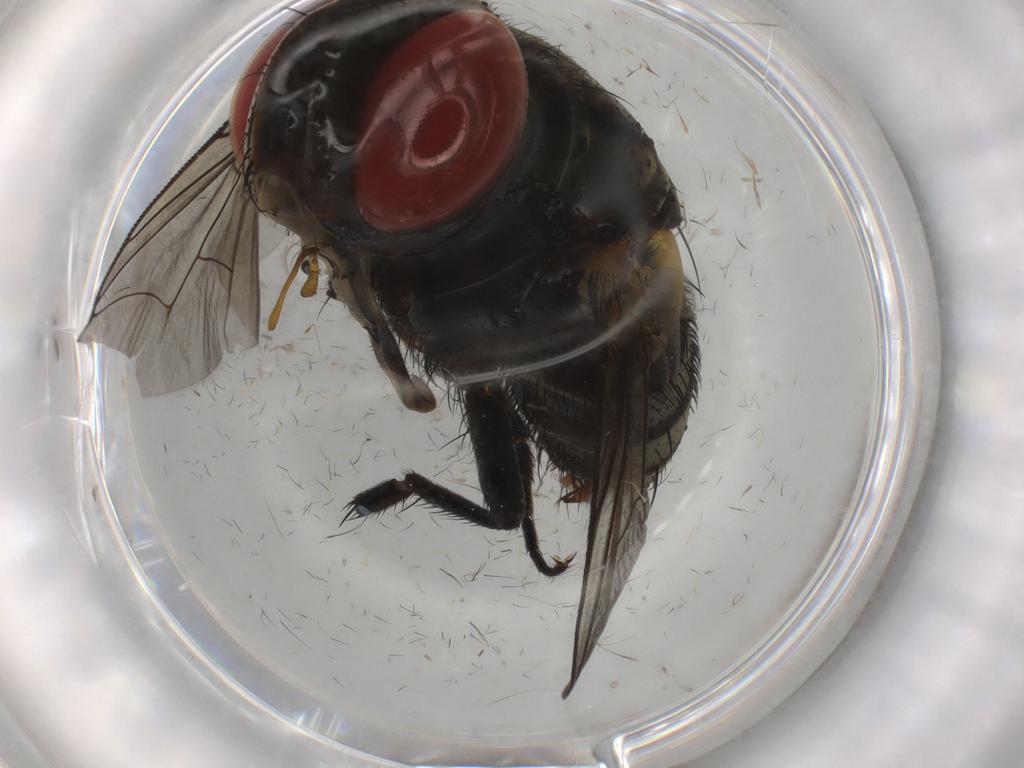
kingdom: Animalia
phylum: Arthropoda
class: Insecta
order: Diptera
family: Sarcophagidae
